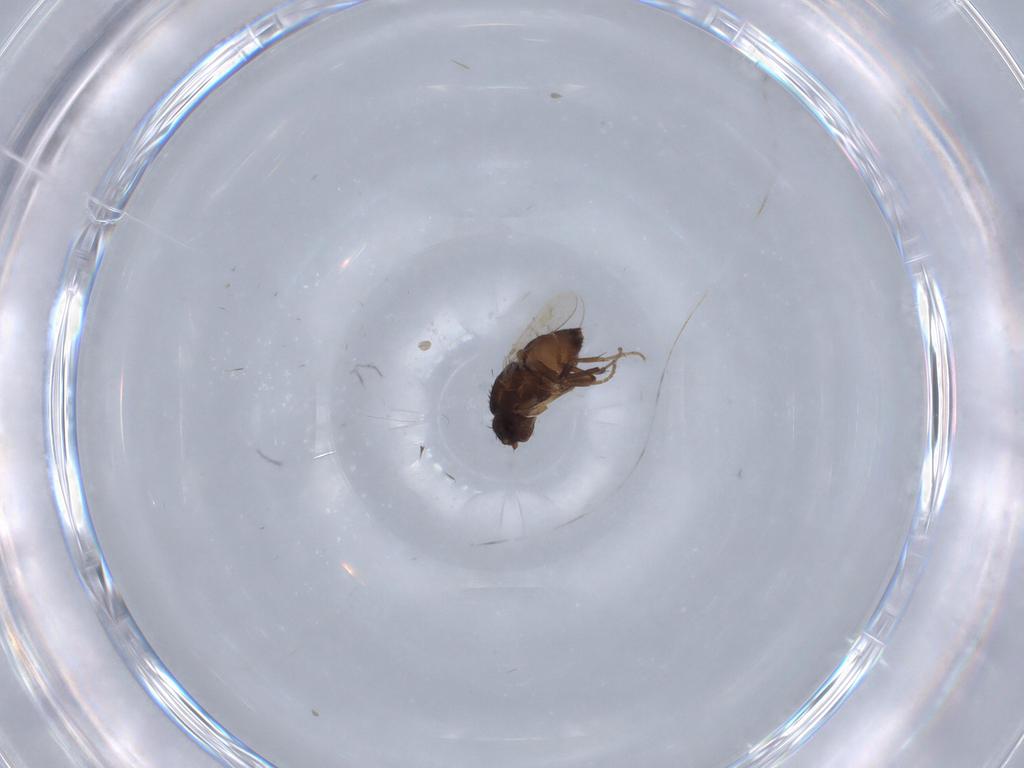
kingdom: Animalia
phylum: Arthropoda
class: Insecta
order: Diptera
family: Sphaeroceridae
